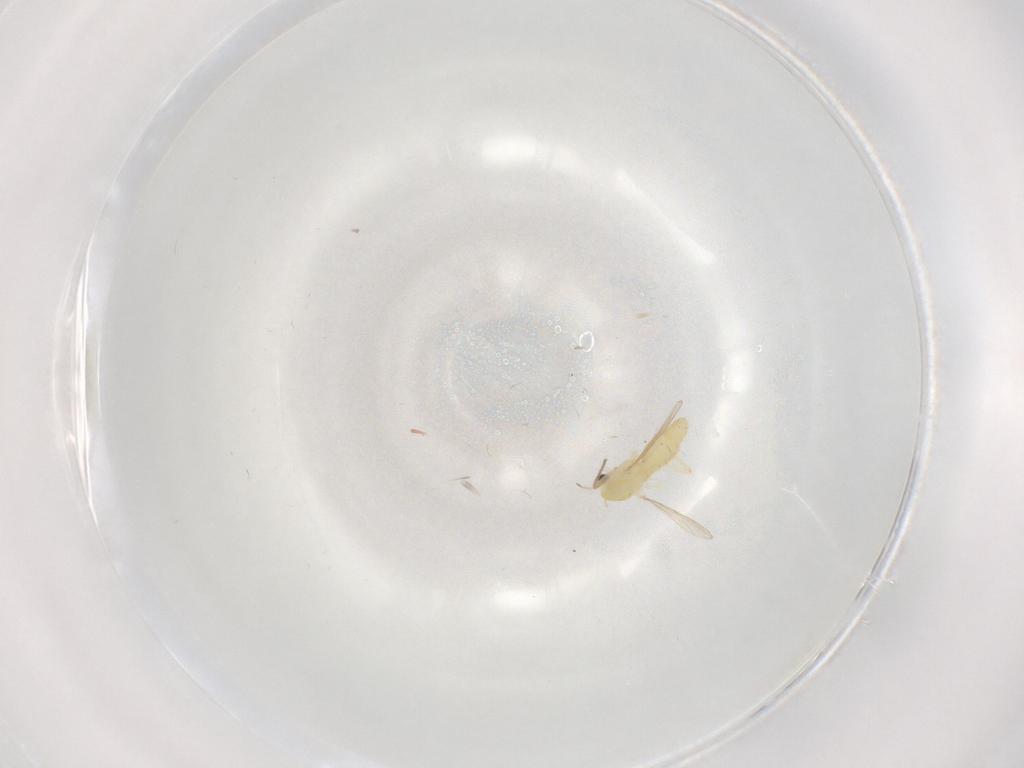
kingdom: Animalia
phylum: Arthropoda
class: Insecta
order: Diptera
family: Chironomidae
